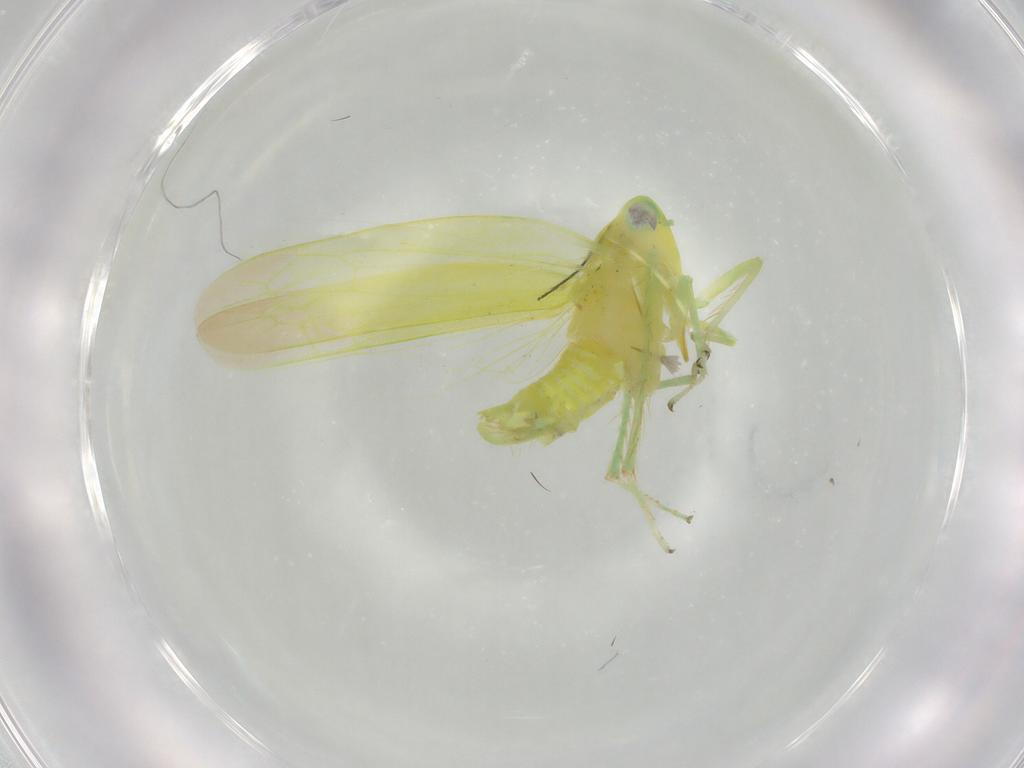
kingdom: Animalia
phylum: Arthropoda
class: Insecta
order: Hemiptera
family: Cicadellidae
